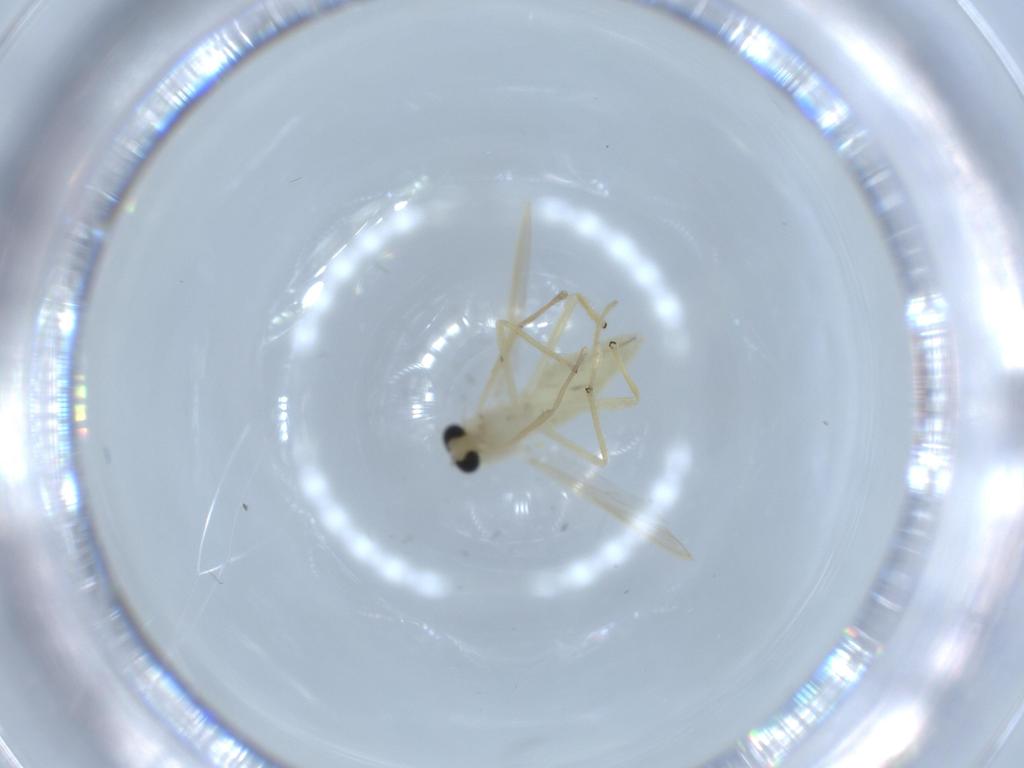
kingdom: Animalia
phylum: Arthropoda
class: Insecta
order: Diptera
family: Chironomidae
